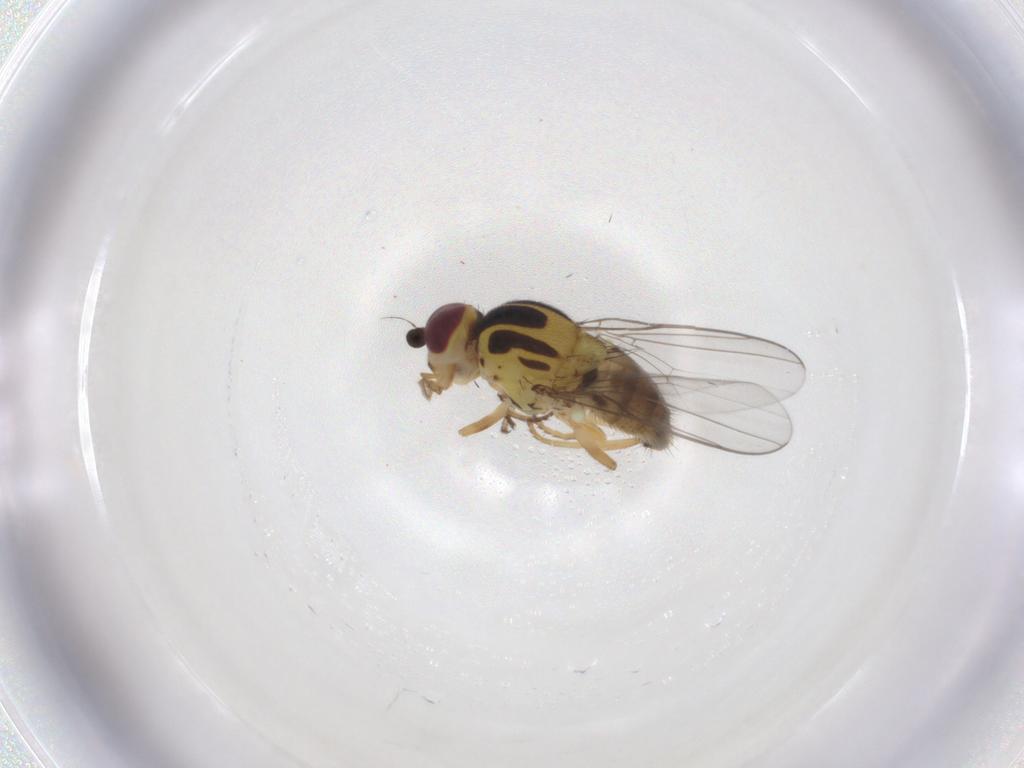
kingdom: Animalia
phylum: Arthropoda
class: Insecta
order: Diptera
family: Chloropidae
